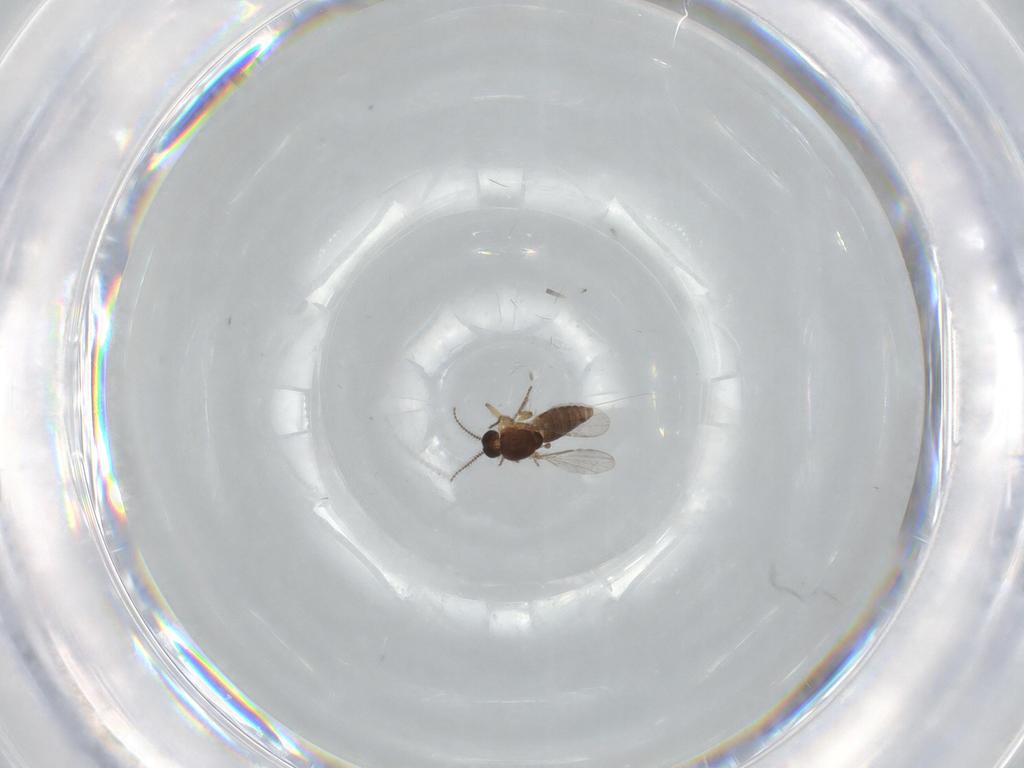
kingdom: Animalia
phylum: Arthropoda
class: Insecta
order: Diptera
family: Ceratopogonidae
